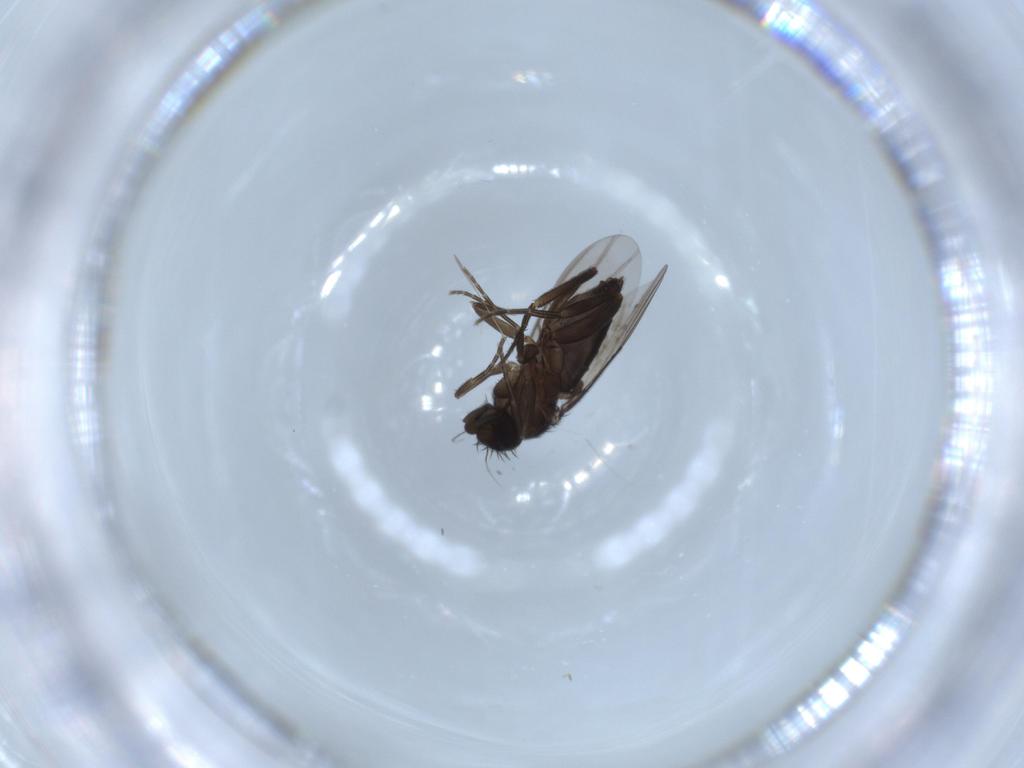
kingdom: Animalia
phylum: Arthropoda
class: Insecta
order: Diptera
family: Phoridae
